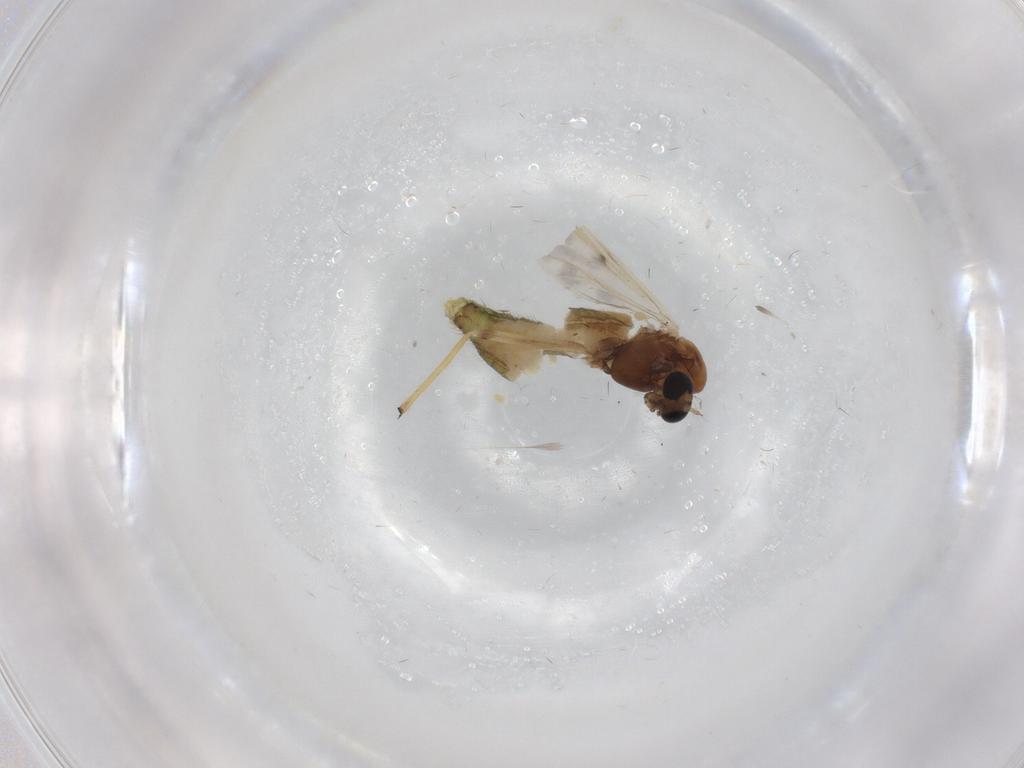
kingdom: Animalia
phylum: Arthropoda
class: Insecta
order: Diptera
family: Chironomidae
